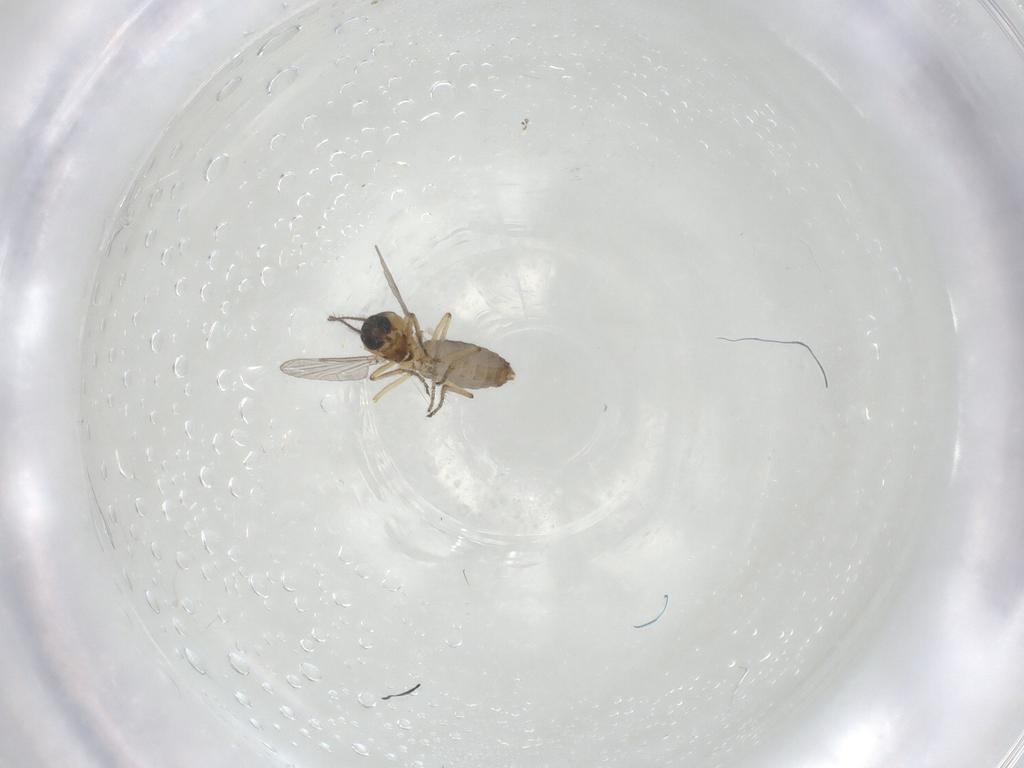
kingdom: Animalia
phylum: Arthropoda
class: Insecta
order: Diptera
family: Ceratopogonidae
